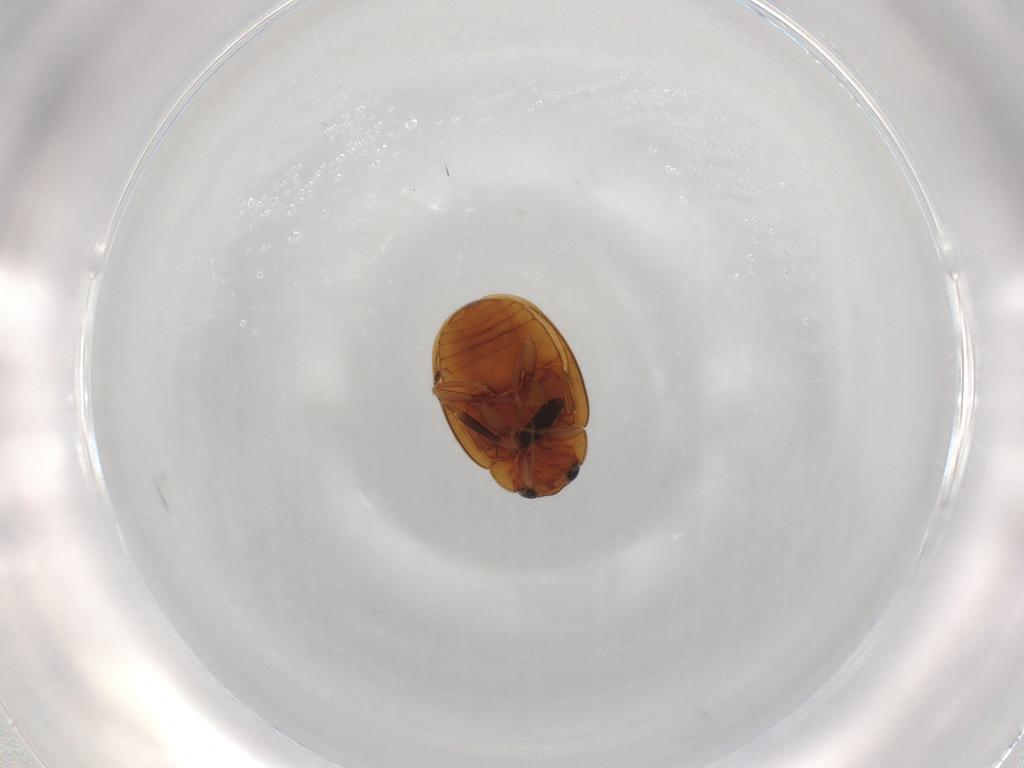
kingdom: Animalia
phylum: Arthropoda
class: Insecta
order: Coleoptera
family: Coccinellidae
